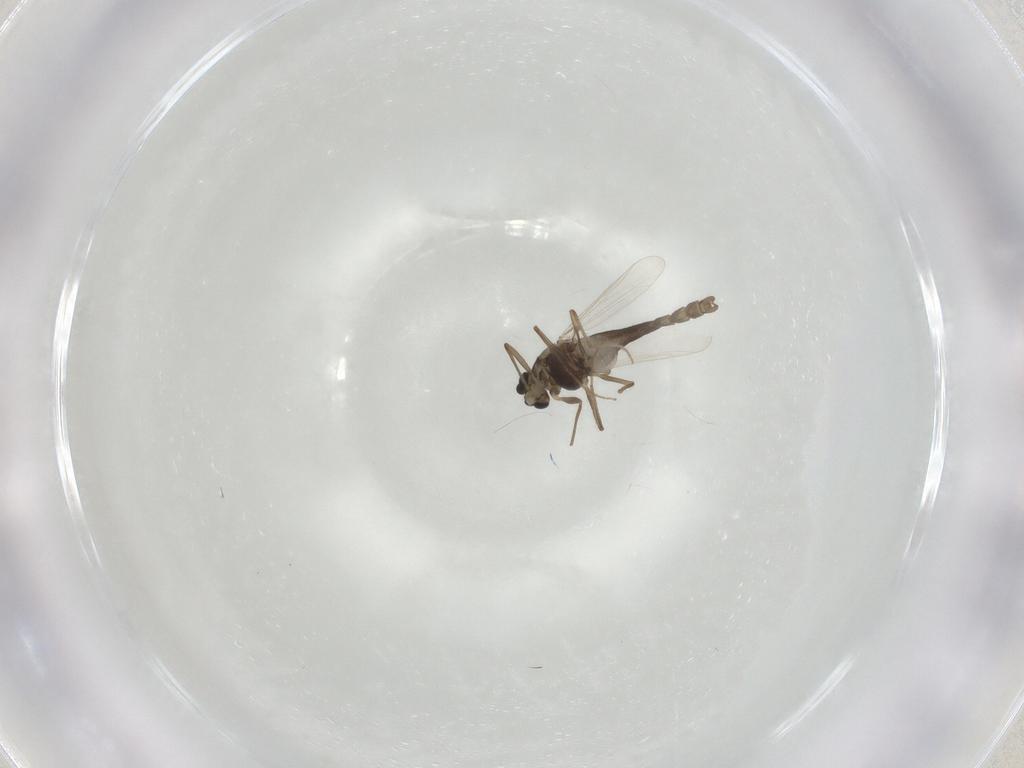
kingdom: Animalia
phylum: Arthropoda
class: Insecta
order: Diptera
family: Chironomidae
